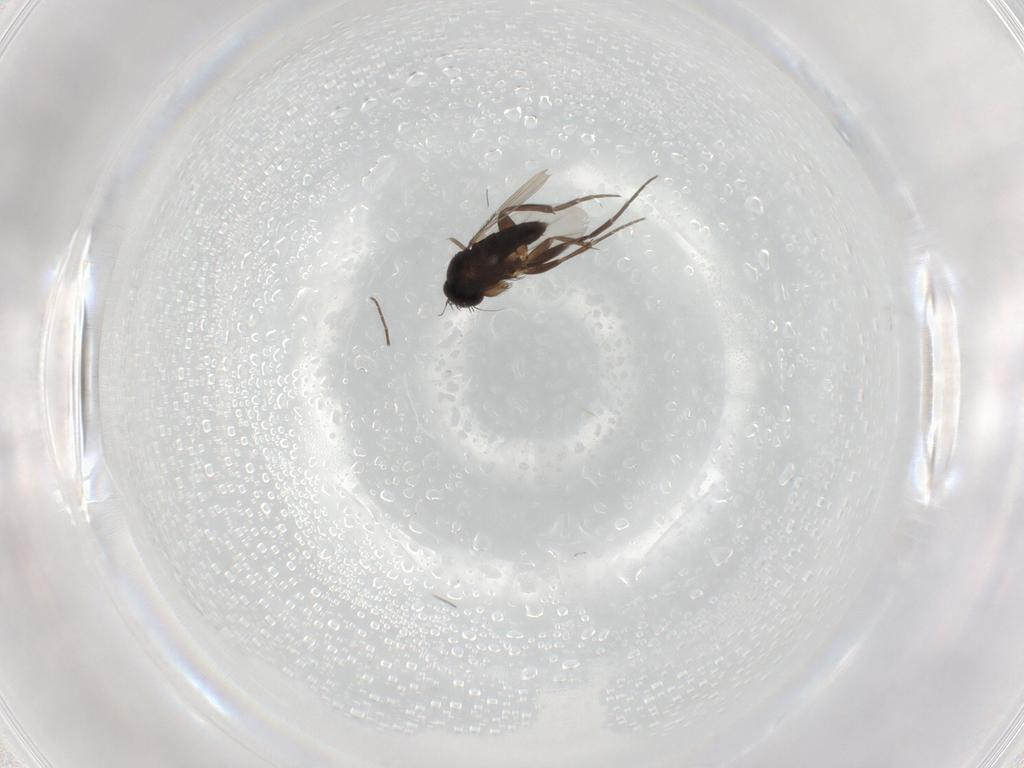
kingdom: Animalia
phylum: Arthropoda
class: Insecta
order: Diptera
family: Phoridae
